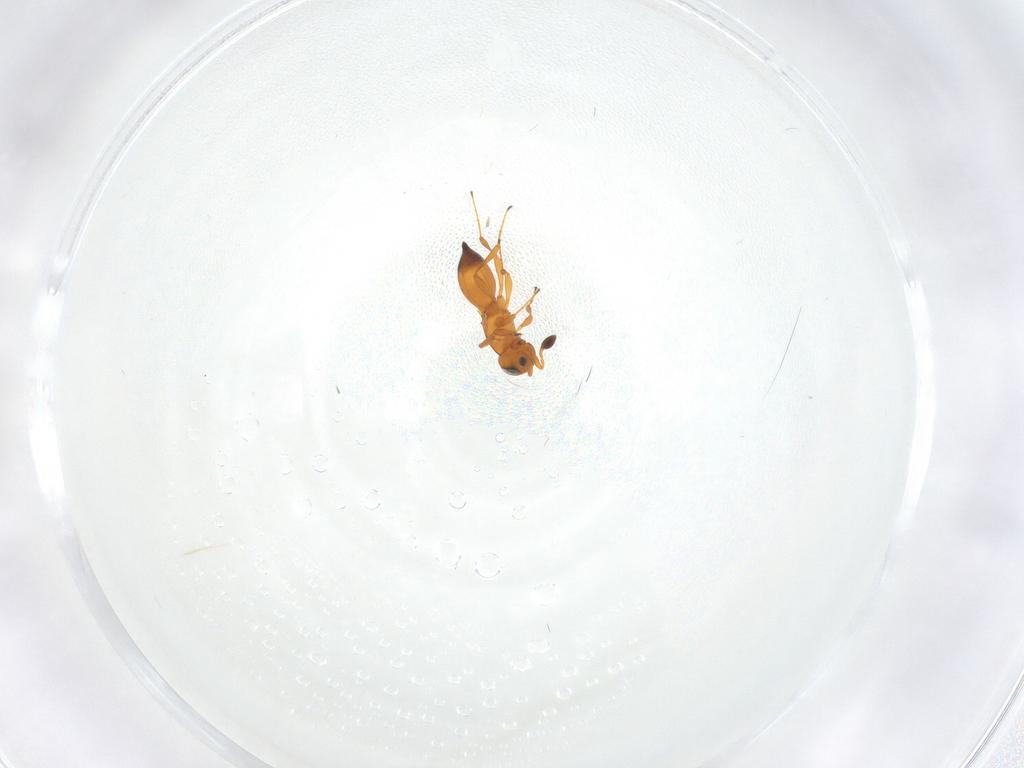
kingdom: Animalia
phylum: Arthropoda
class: Insecta
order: Hymenoptera
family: Platygastridae
